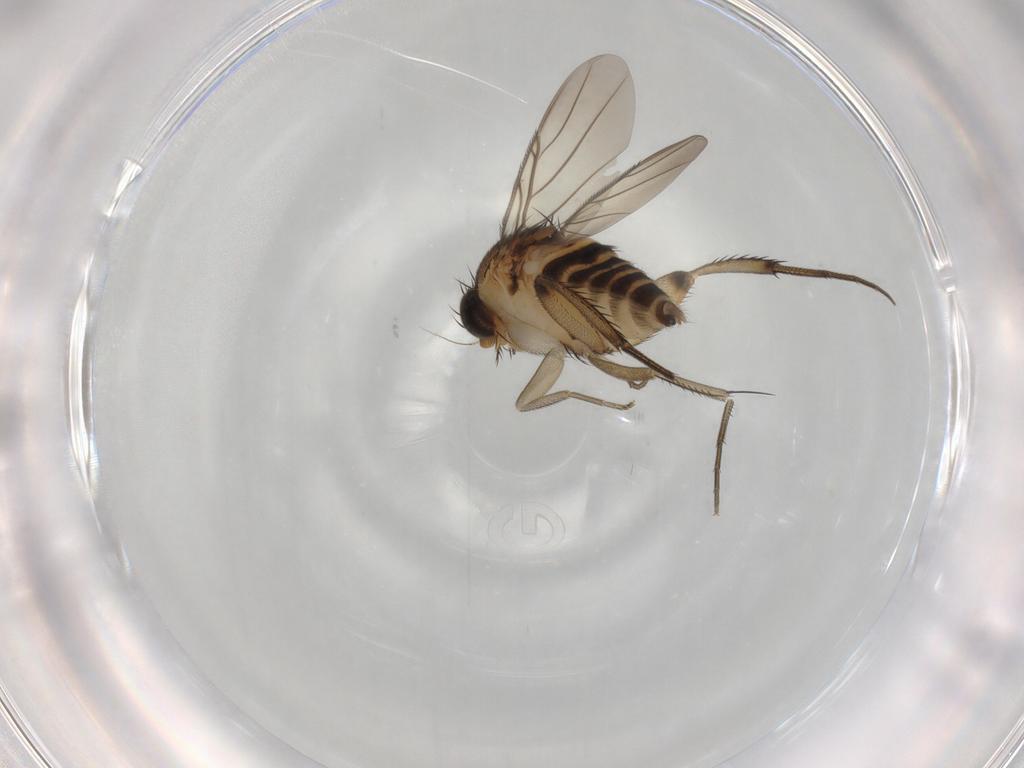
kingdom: Animalia
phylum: Arthropoda
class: Insecta
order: Diptera
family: Phoridae
